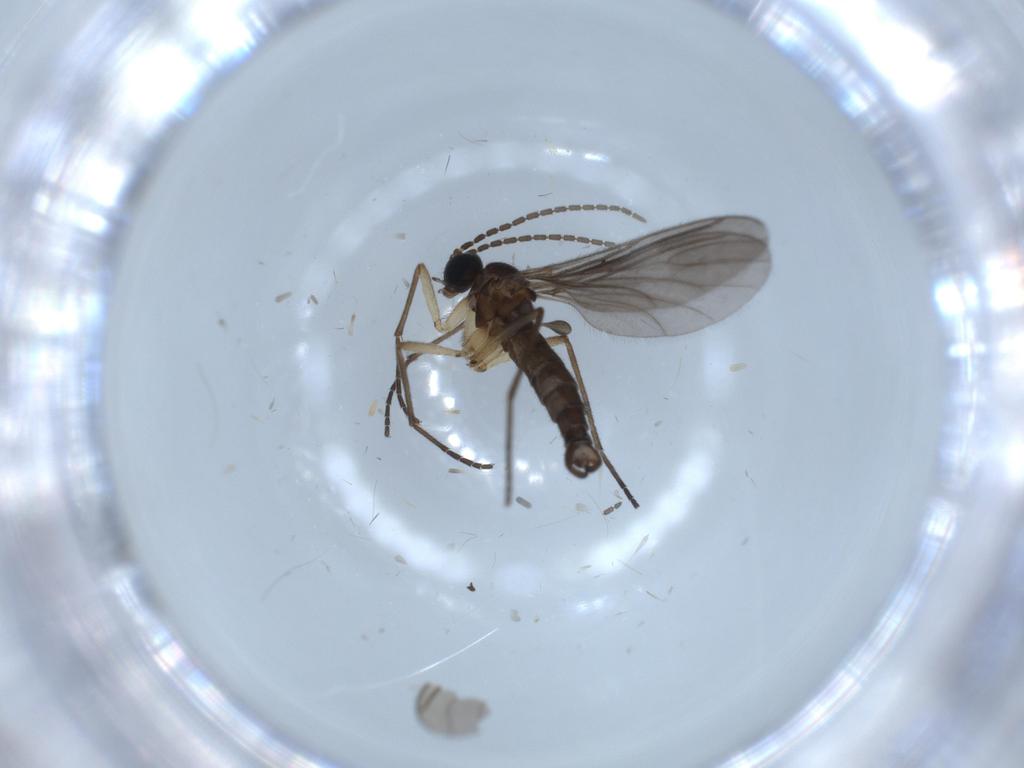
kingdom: Animalia
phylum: Arthropoda
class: Insecta
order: Diptera
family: Sciaridae
